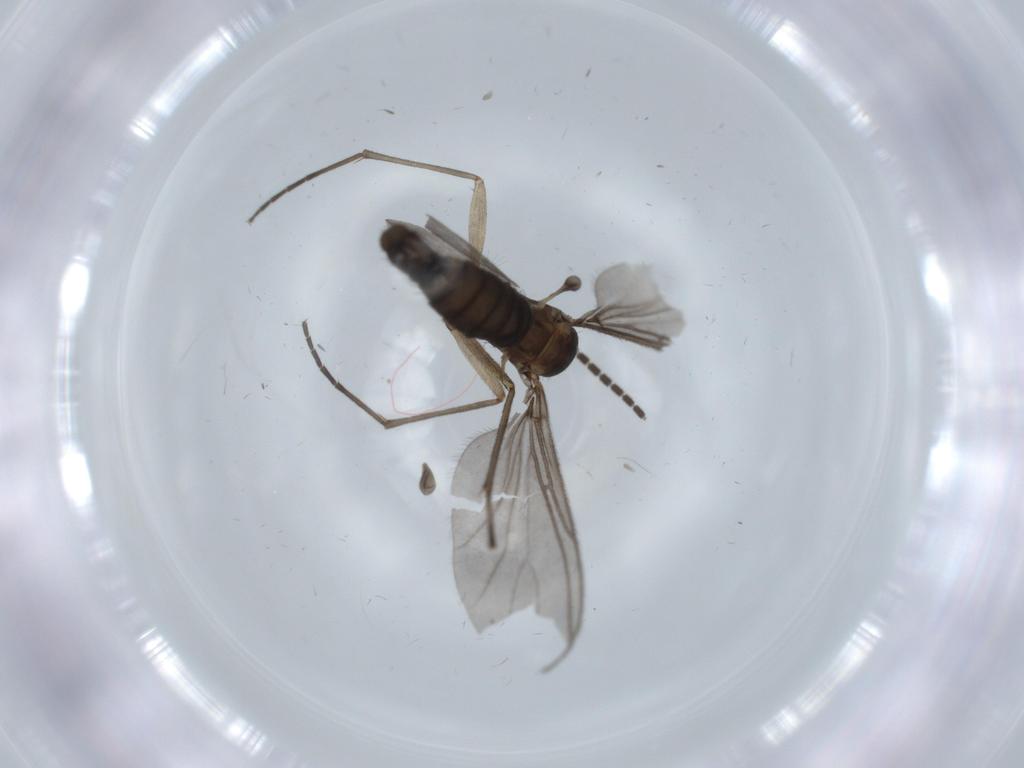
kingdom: Animalia
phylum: Arthropoda
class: Insecta
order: Diptera
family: Sciaridae
